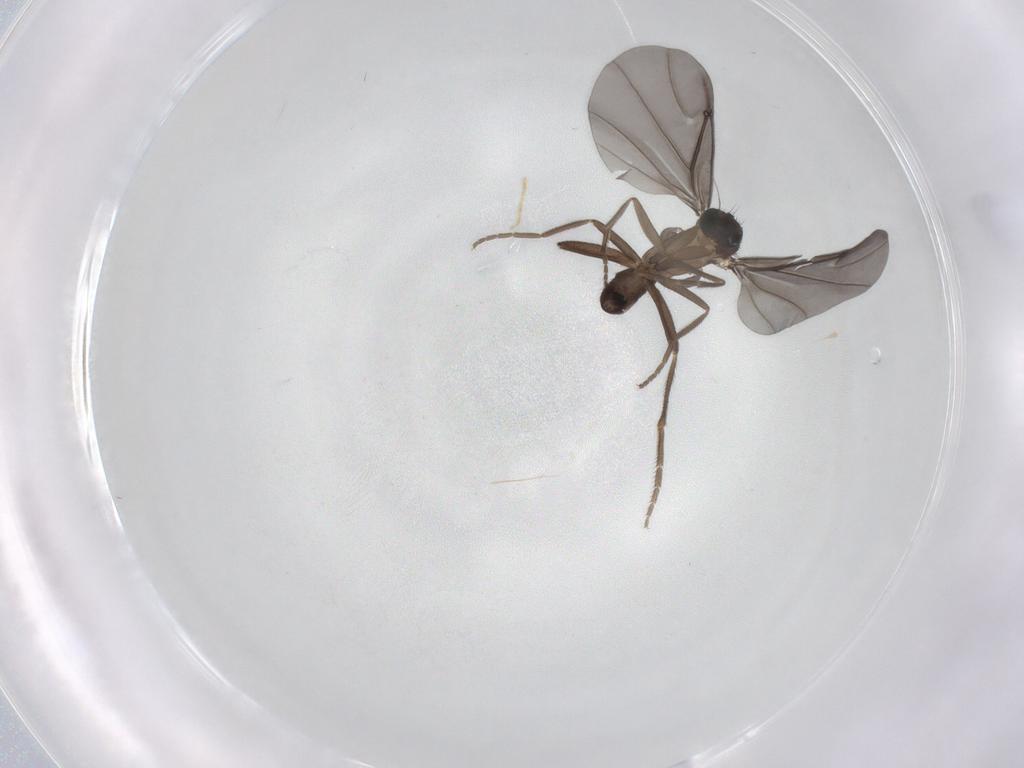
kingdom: Animalia
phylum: Arthropoda
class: Insecta
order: Diptera
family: Phoridae
